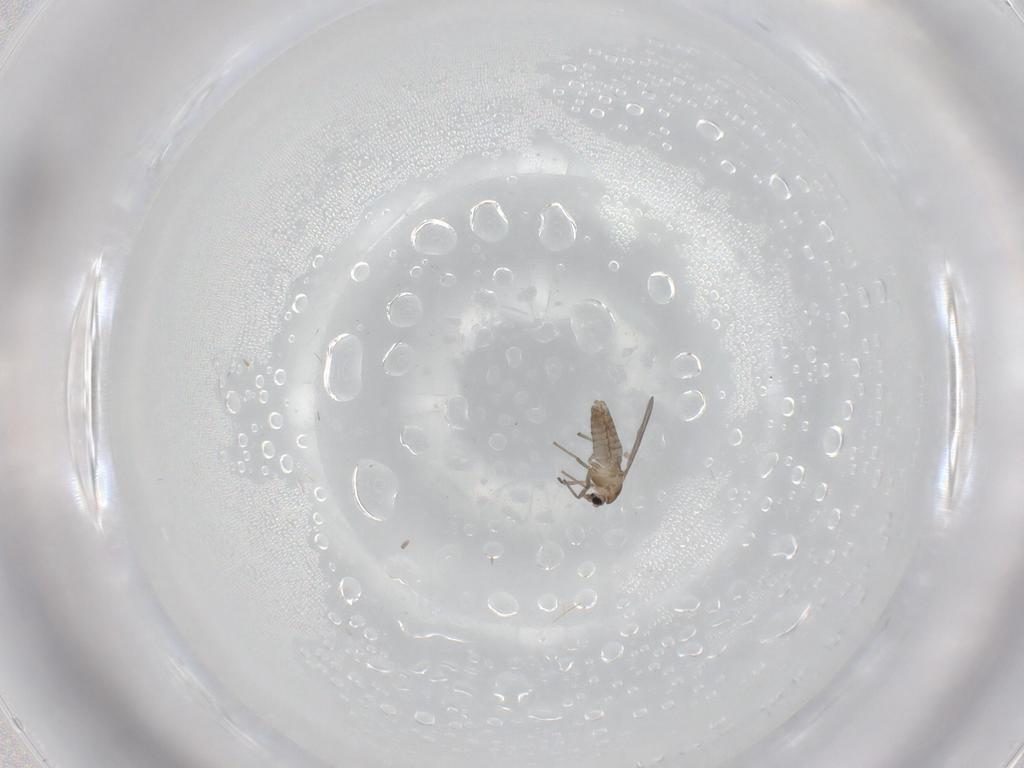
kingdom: Animalia
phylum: Arthropoda
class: Insecta
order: Diptera
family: Chironomidae
